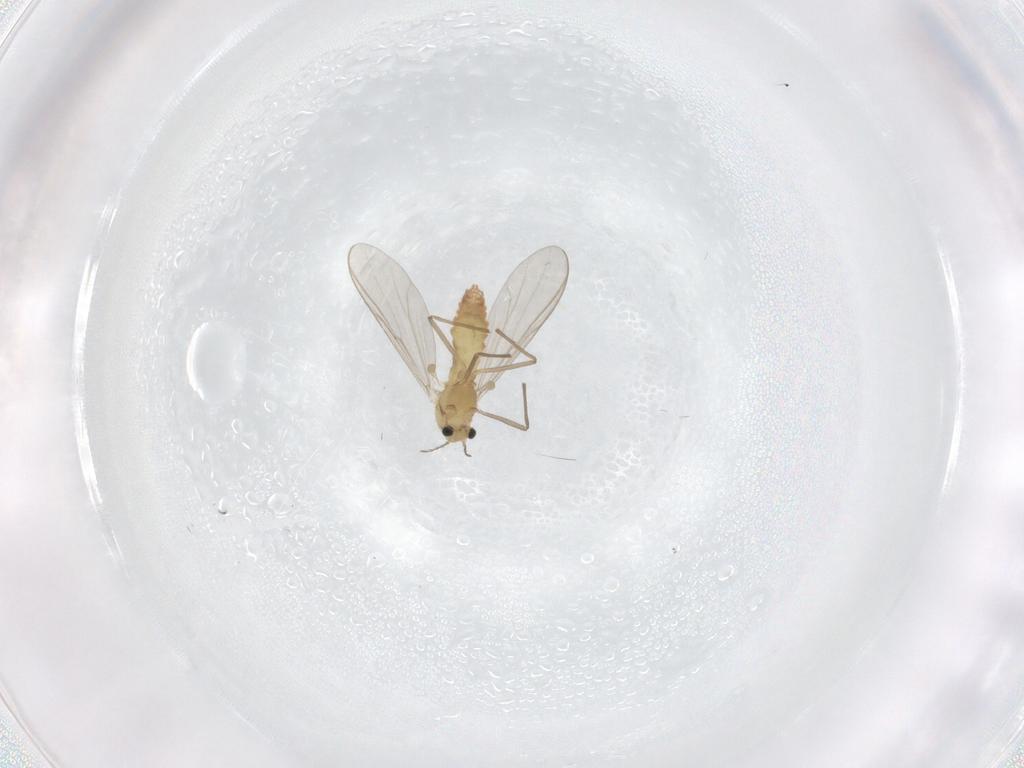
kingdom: Animalia
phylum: Arthropoda
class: Insecta
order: Diptera
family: Chironomidae
